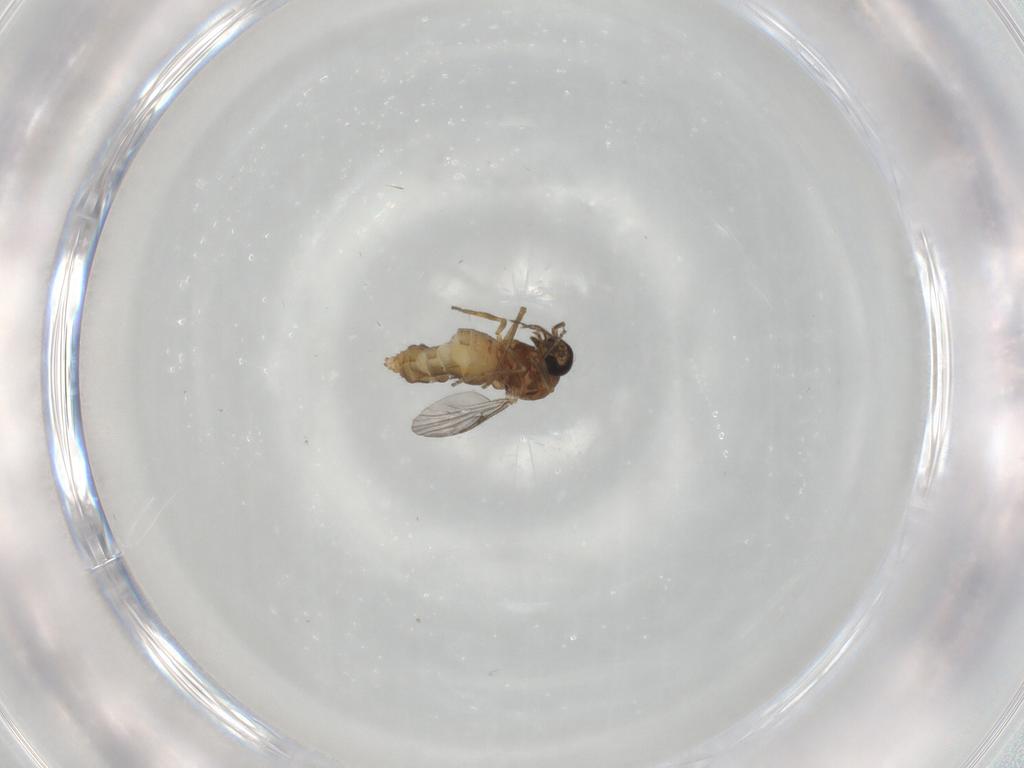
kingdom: Animalia
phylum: Arthropoda
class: Insecta
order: Diptera
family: Ceratopogonidae
